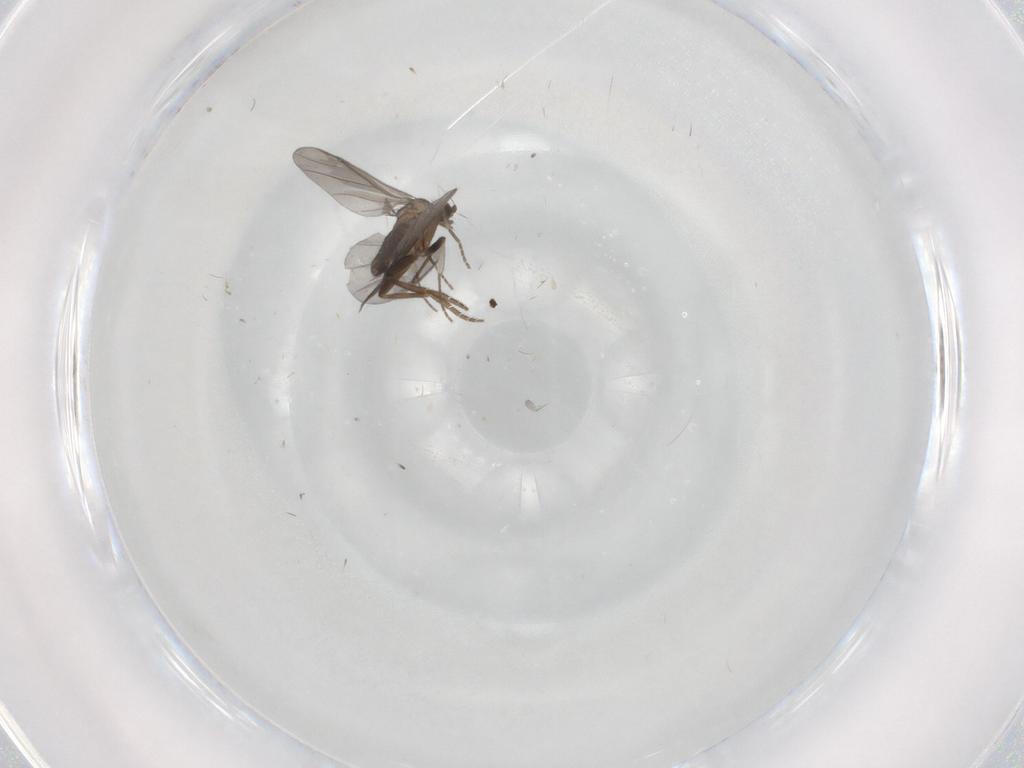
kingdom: Animalia
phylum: Arthropoda
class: Insecta
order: Diptera
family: Phoridae
